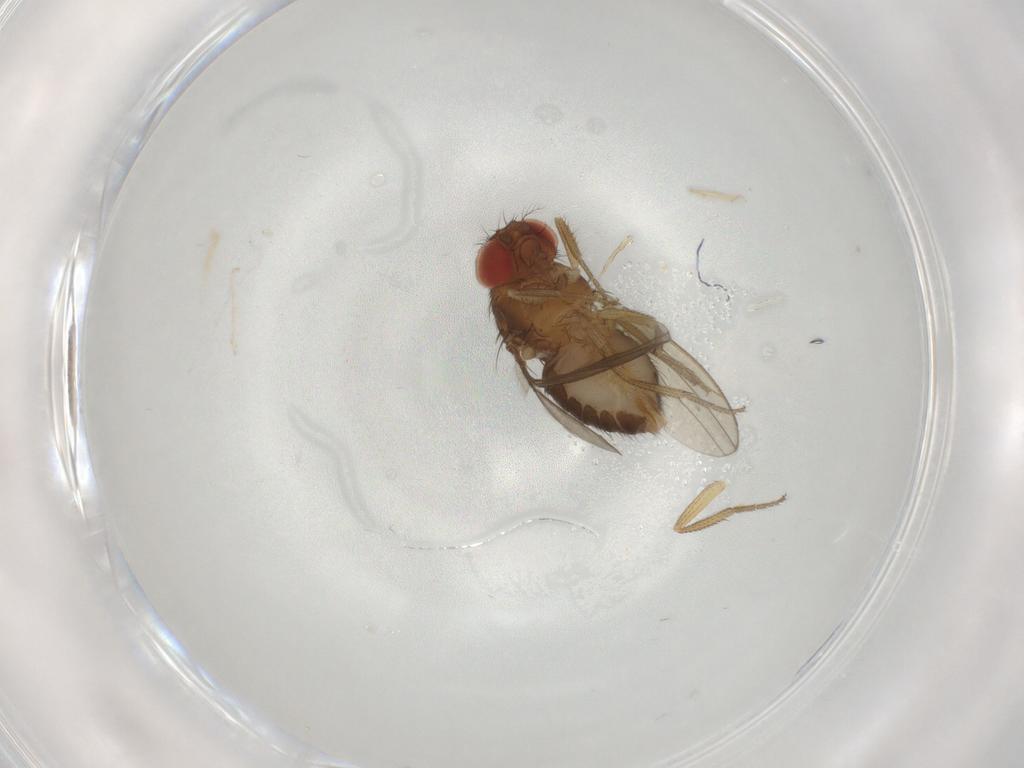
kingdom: Animalia
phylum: Arthropoda
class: Insecta
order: Diptera
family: Drosophilidae
